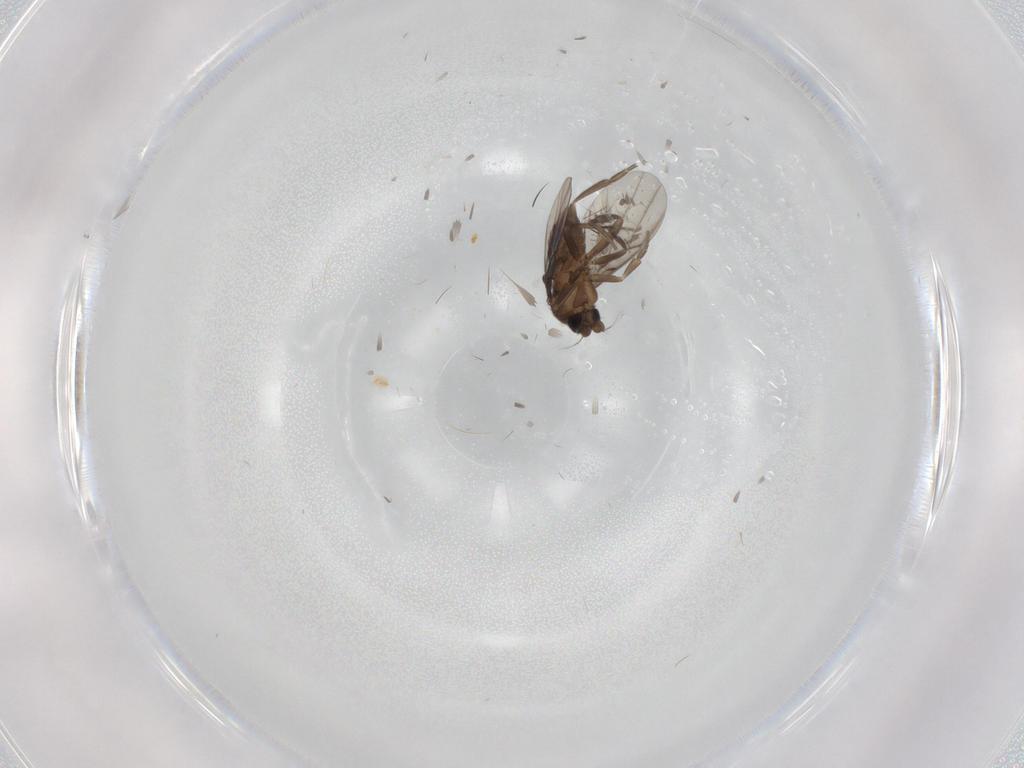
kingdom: Animalia
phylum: Arthropoda
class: Insecta
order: Diptera
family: Phoridae
